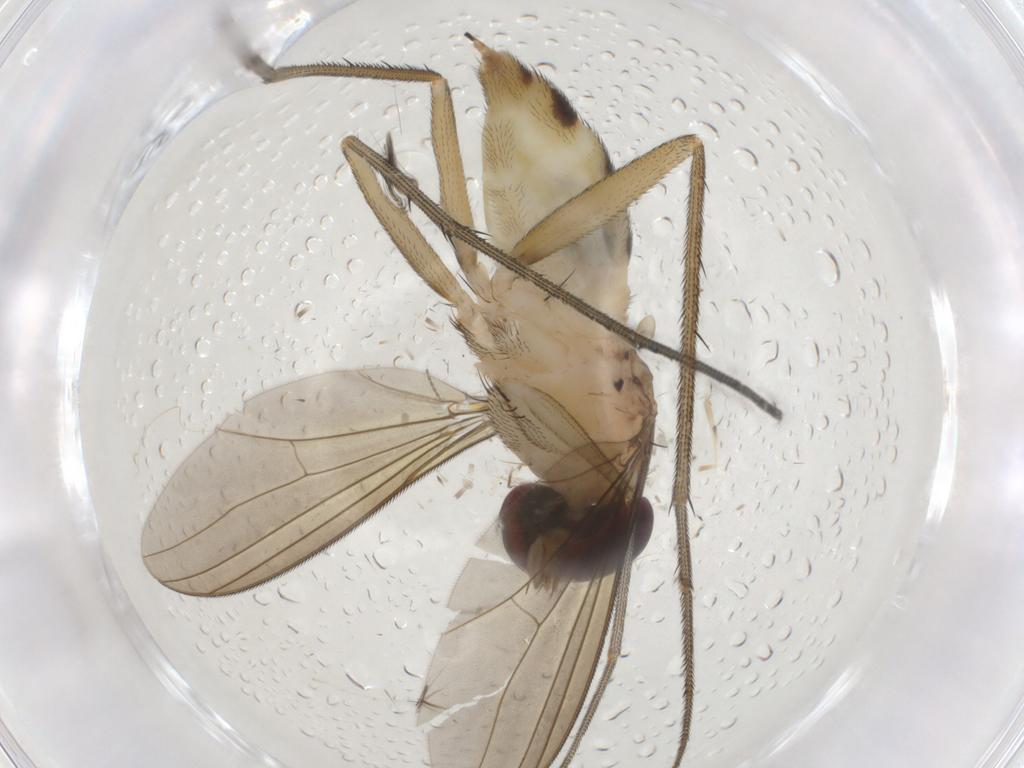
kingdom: Animalia
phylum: Arthropoda
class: Insecta
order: Diptera
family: Dolichopodidae
